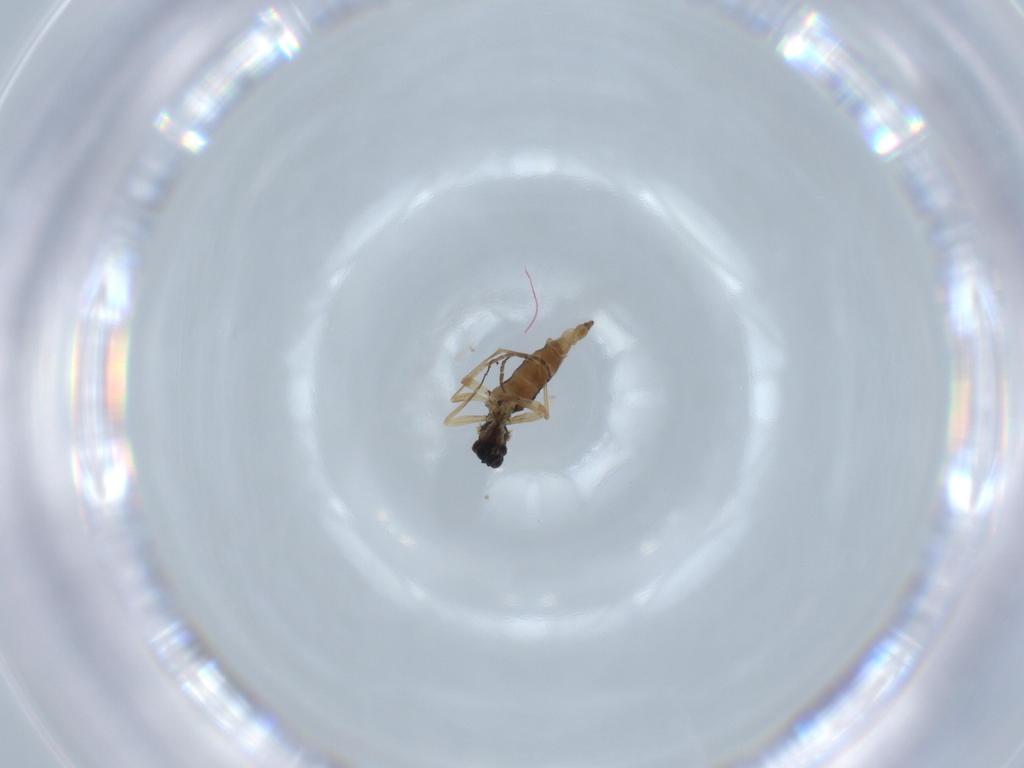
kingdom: Animalia
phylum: Arthropoda
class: Insecta
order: Diptera
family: Sciaridae
